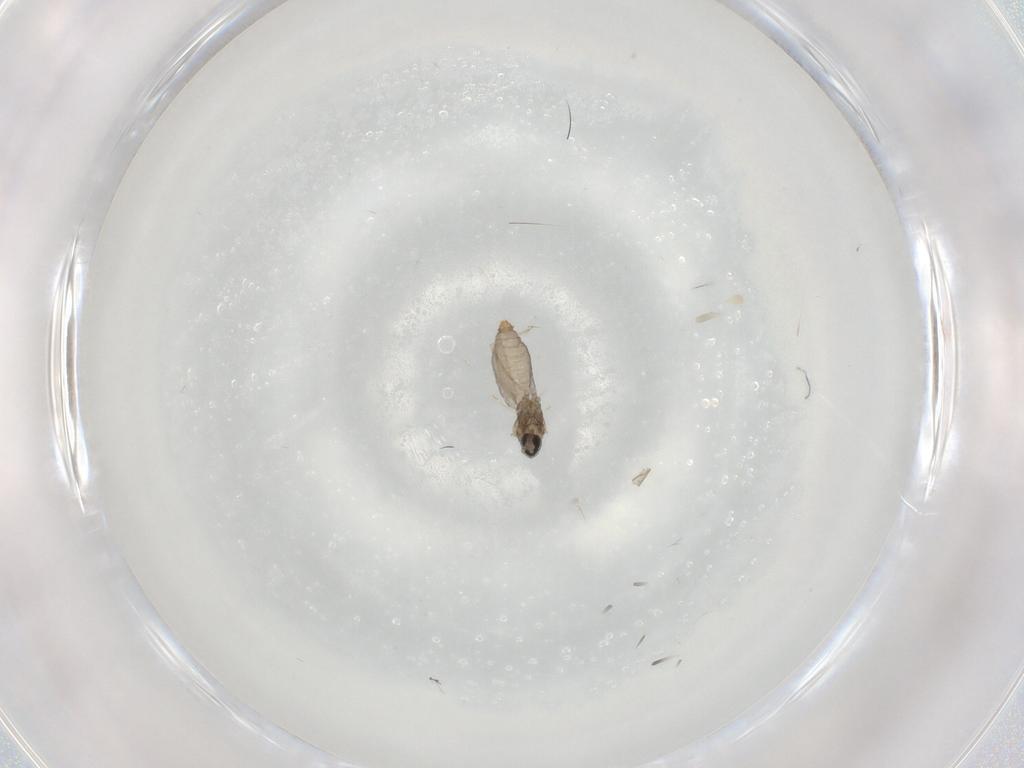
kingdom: Animalia
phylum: Arthropoda
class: Insecta
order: Diptera
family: Cecidomyiidae
